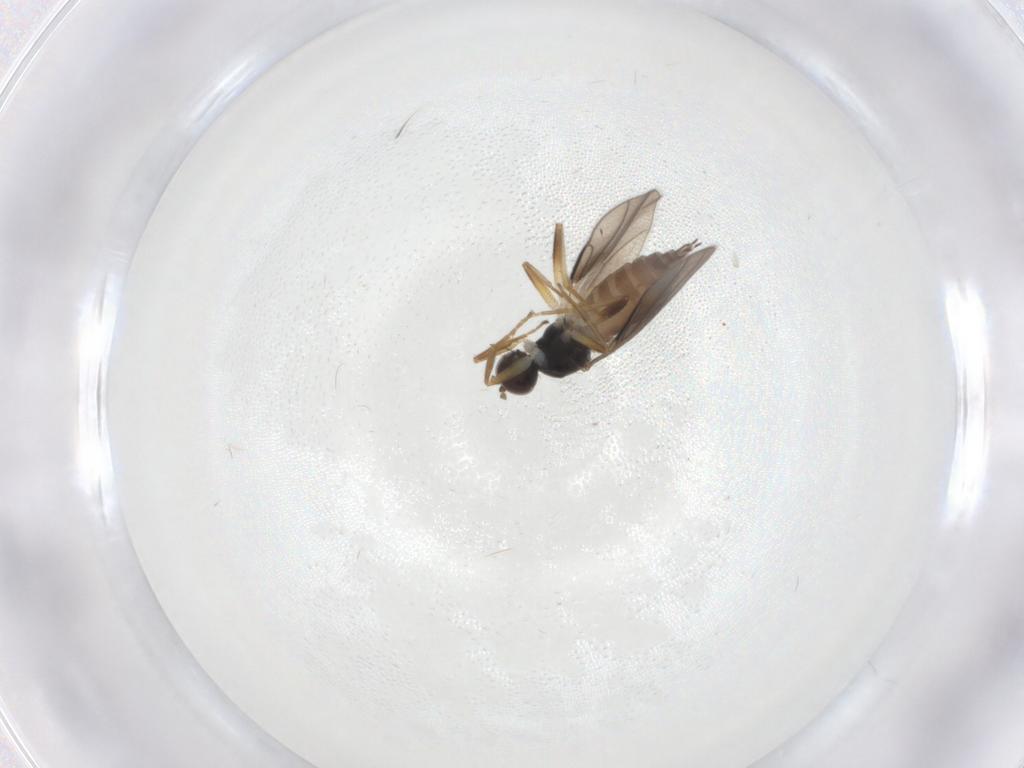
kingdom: Animalia
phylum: Arthropoda
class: Insecta
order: Diptera
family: Hybotidae
